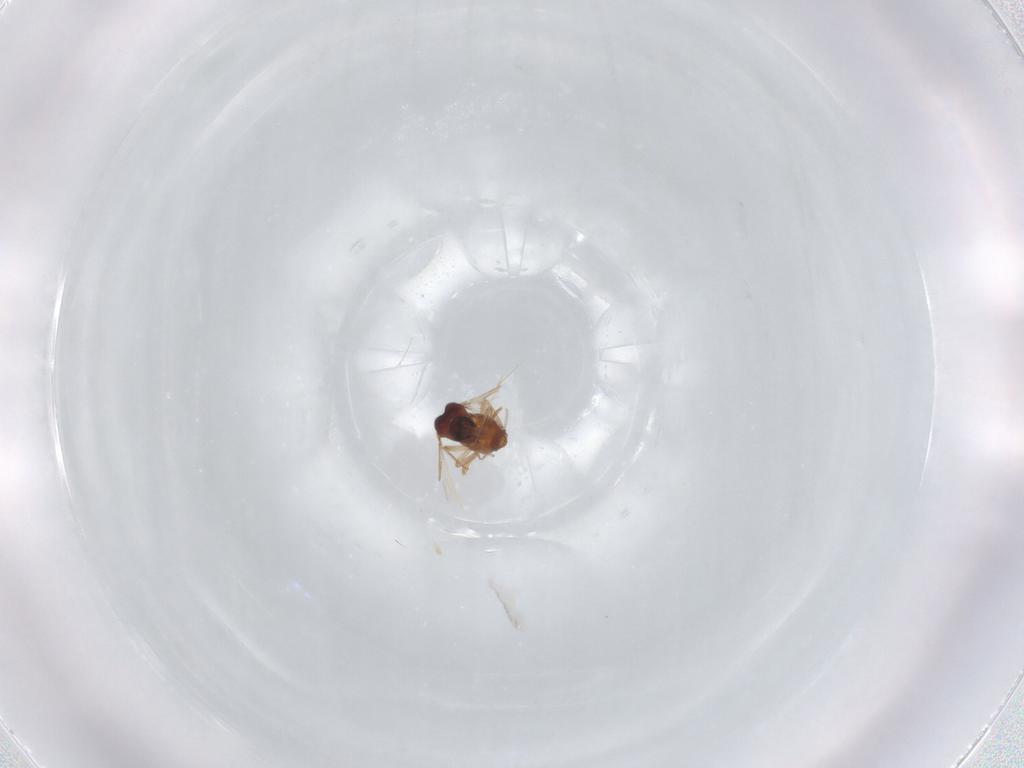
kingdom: Animalia
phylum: Arthropoda
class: Insecta
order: Diptera
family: Ceratopogonidae
